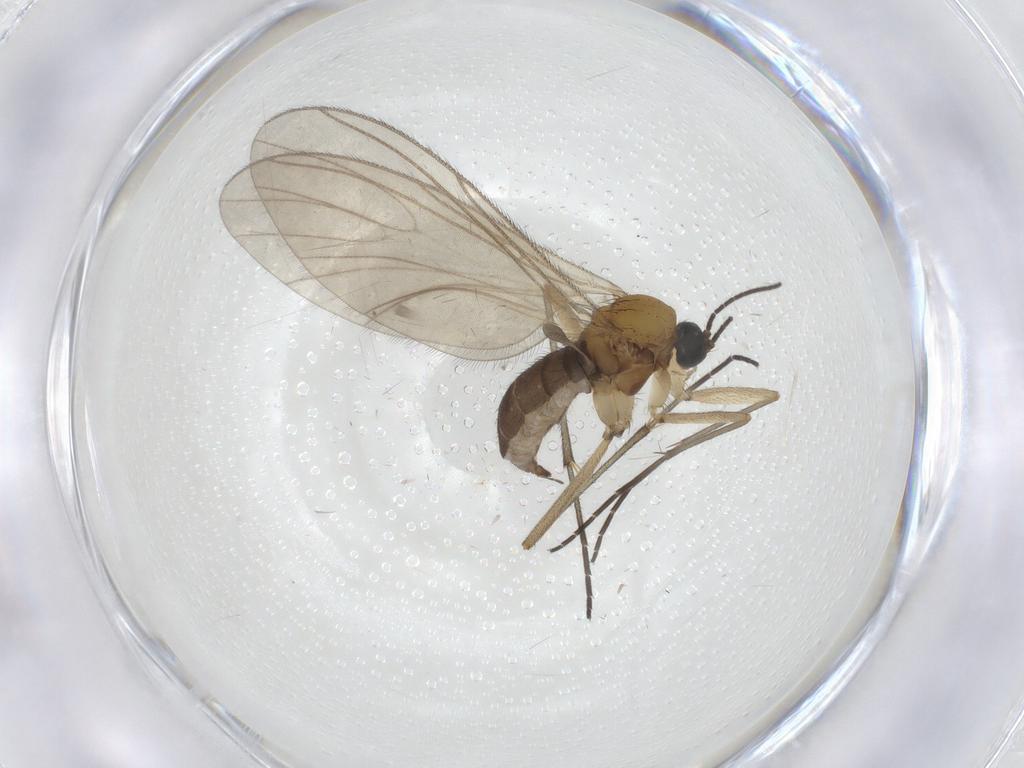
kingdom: Animalia
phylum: Arthropoda
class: Insecta
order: Diptera
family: Sciaridae
